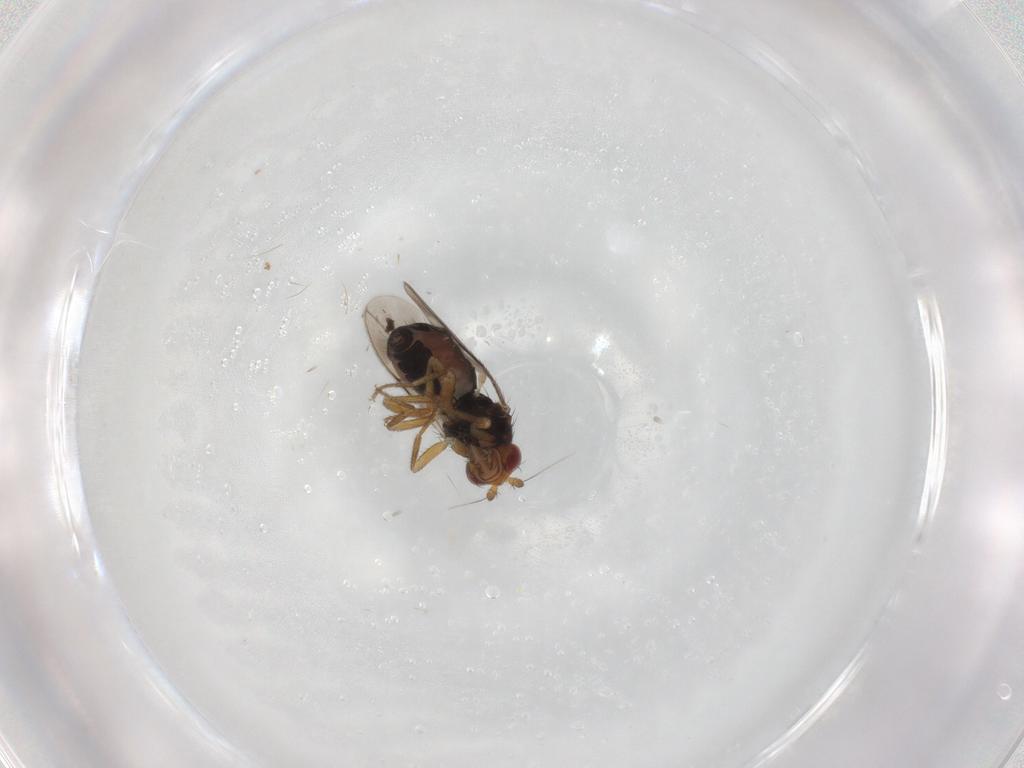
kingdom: Animalia
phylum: Arthropoda
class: Insecta
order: Diptera
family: Sphaeroceridae
